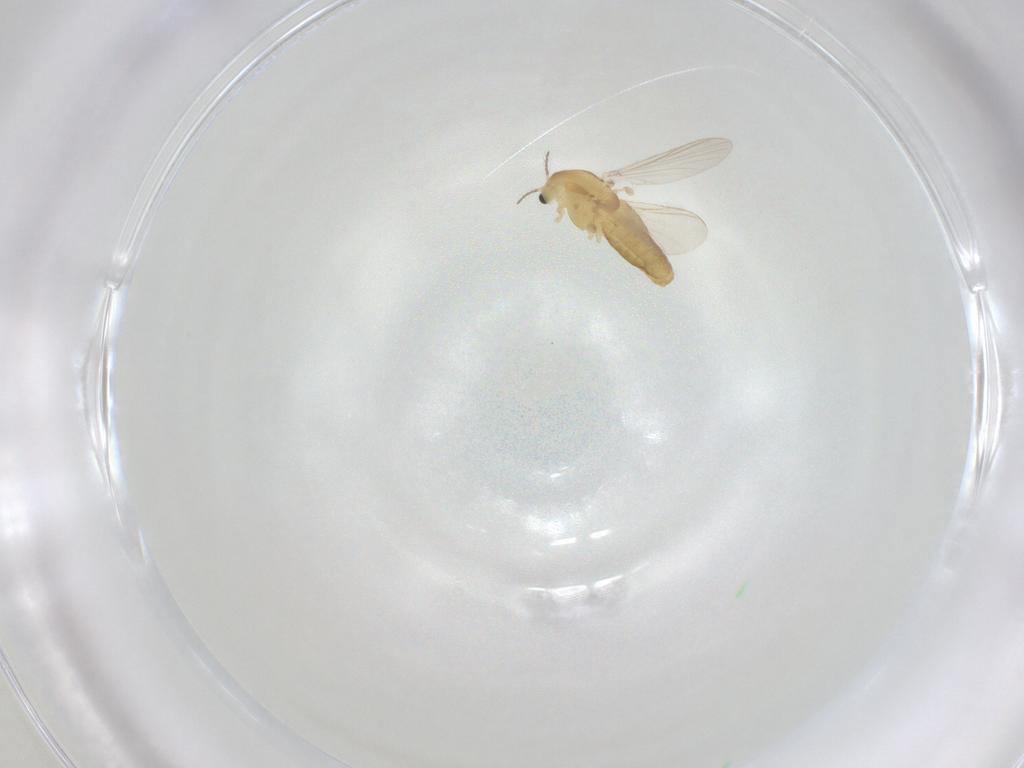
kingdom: Animalia
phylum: Arthropoda
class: Insecta
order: Diptera
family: Chironomidae
